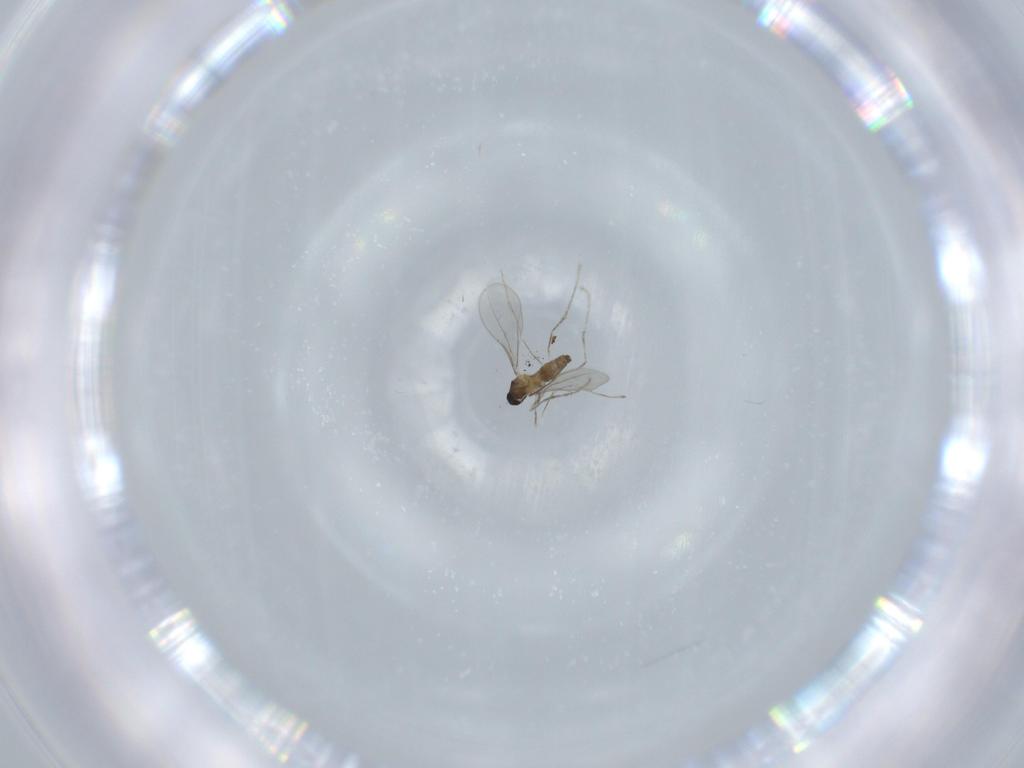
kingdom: Animalia
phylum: Arthropoda
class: Insecta
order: Diptera
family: Cecidomyiidae
